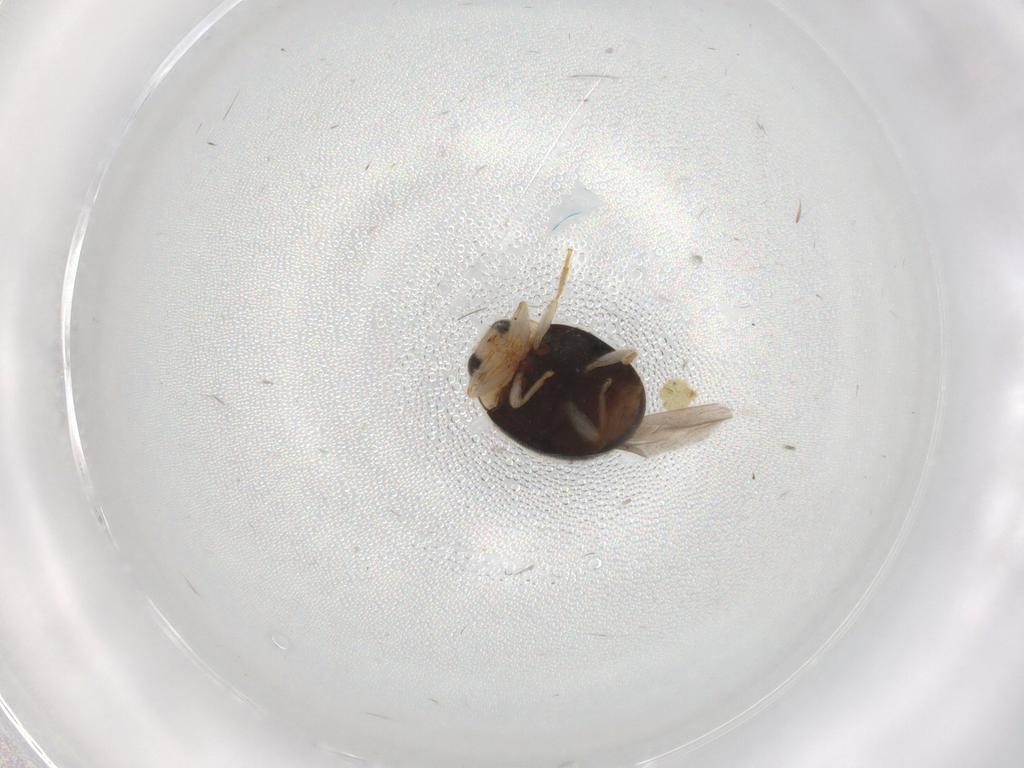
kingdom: Animalia
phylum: Arthropoda
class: Insecta
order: Coleoptera
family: Coccinellidae
